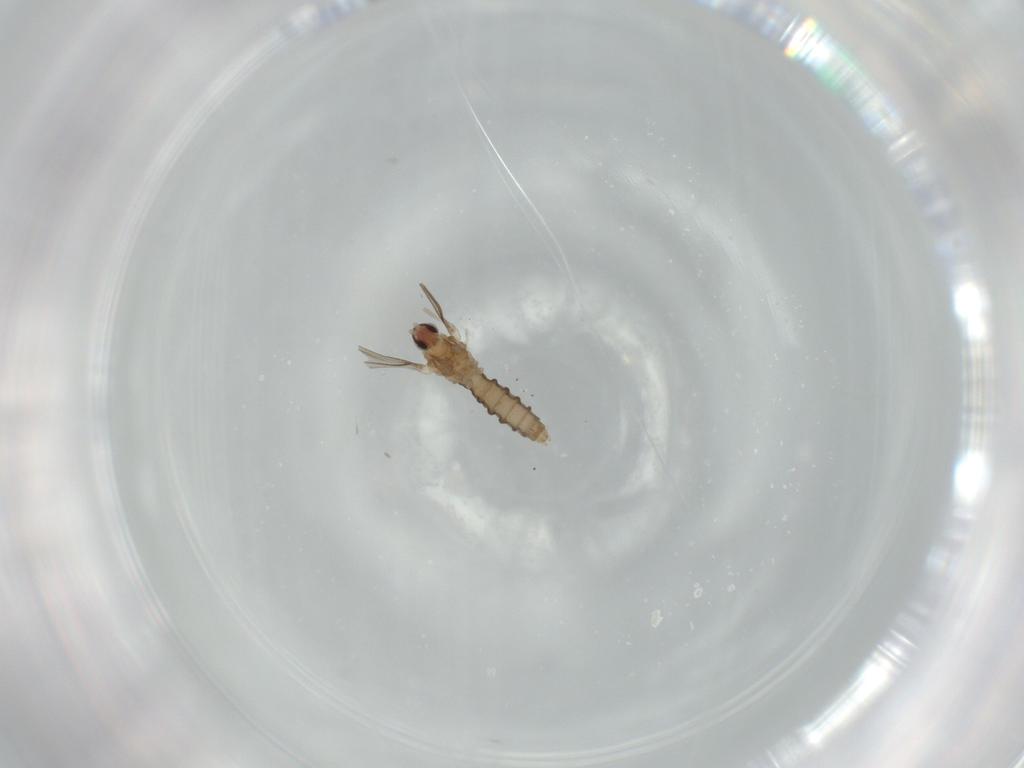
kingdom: Animalia
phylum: Arthropoda
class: Insecta
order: Diptera
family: Cecidomyiidae
